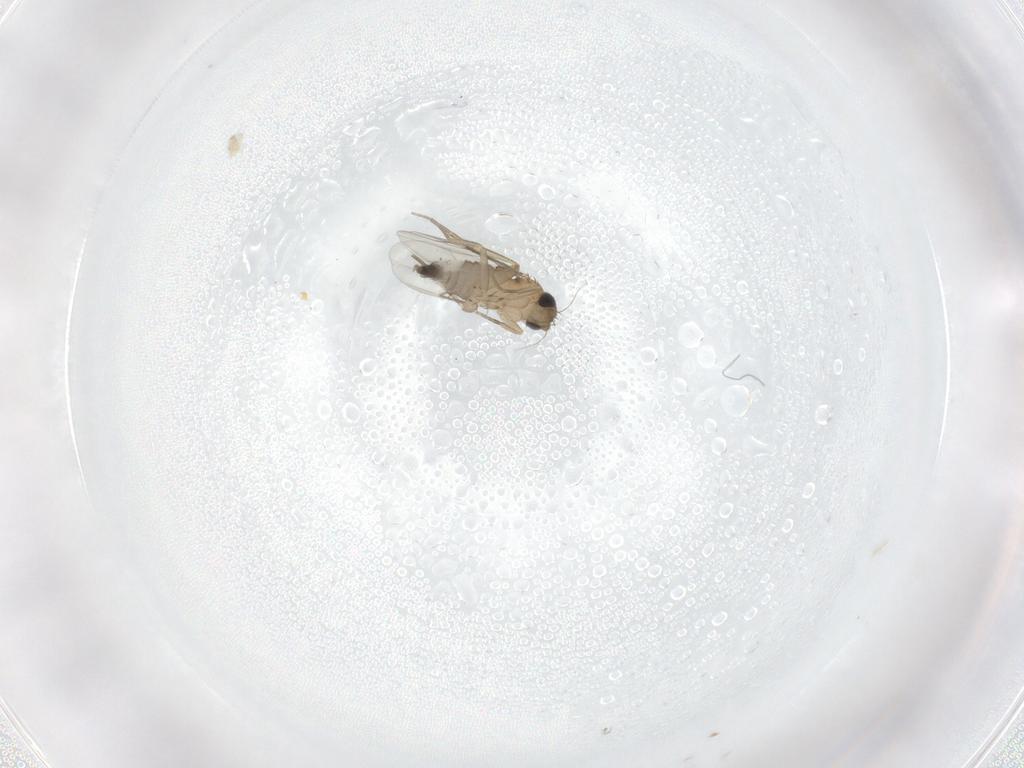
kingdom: Animalia
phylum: Arthropoda
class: Insecta
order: Diptera
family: Phoridae
